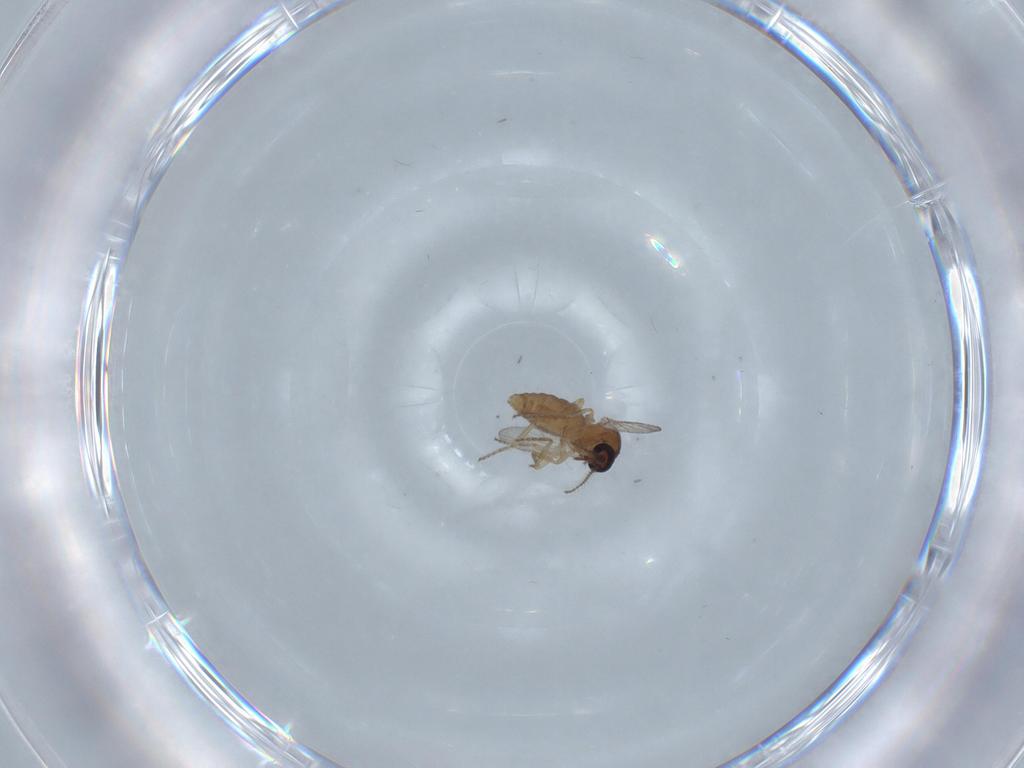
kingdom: Animalia
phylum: Arthropoda
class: Insecta
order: Diptera
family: Ceratopogonidae
